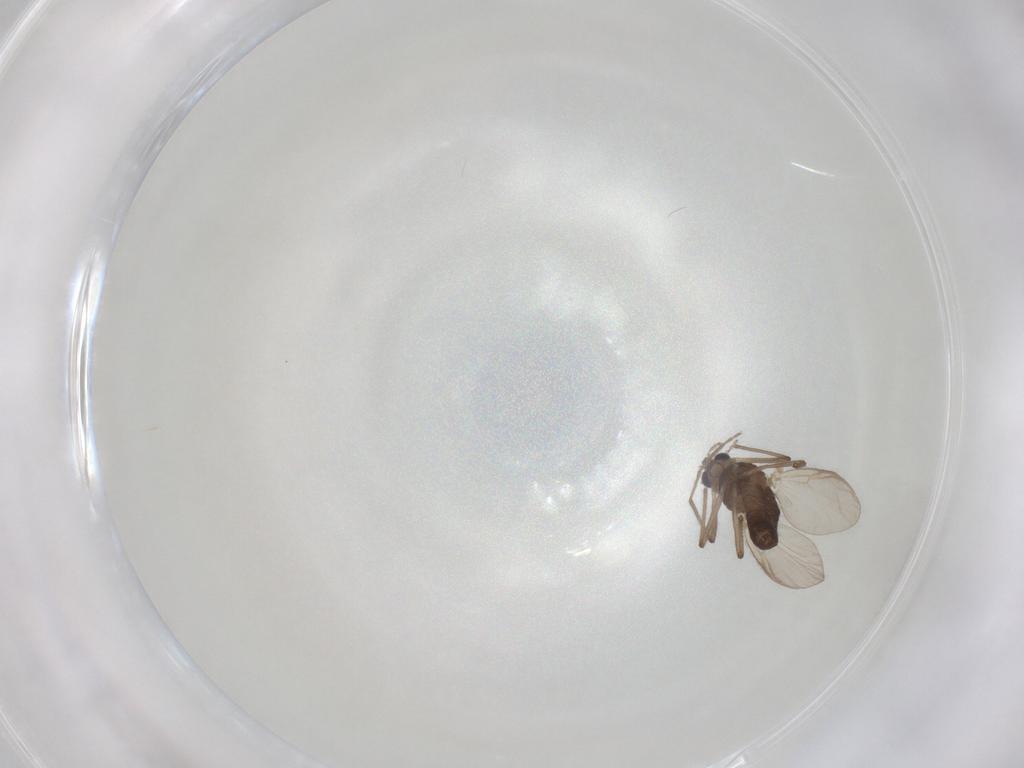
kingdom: Animalia
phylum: Arthropoda
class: Insecta
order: Diptera
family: Chironomidae
